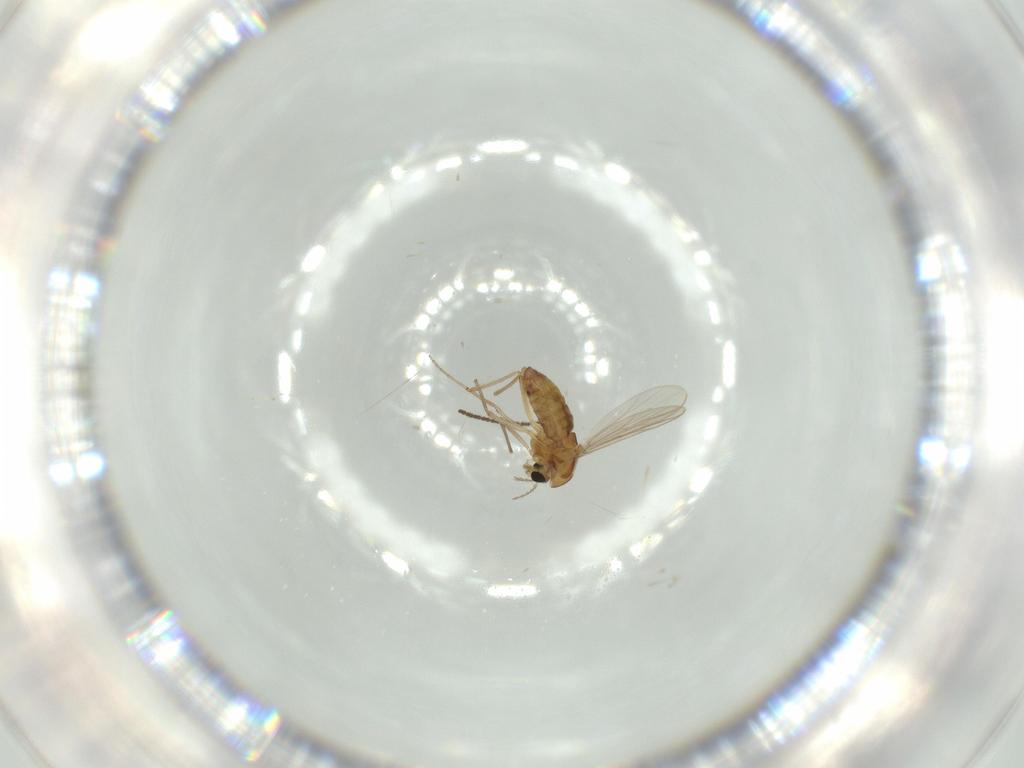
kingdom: Animalia
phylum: Arthropoda
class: Insecta
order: Diptera
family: Chironomidae
